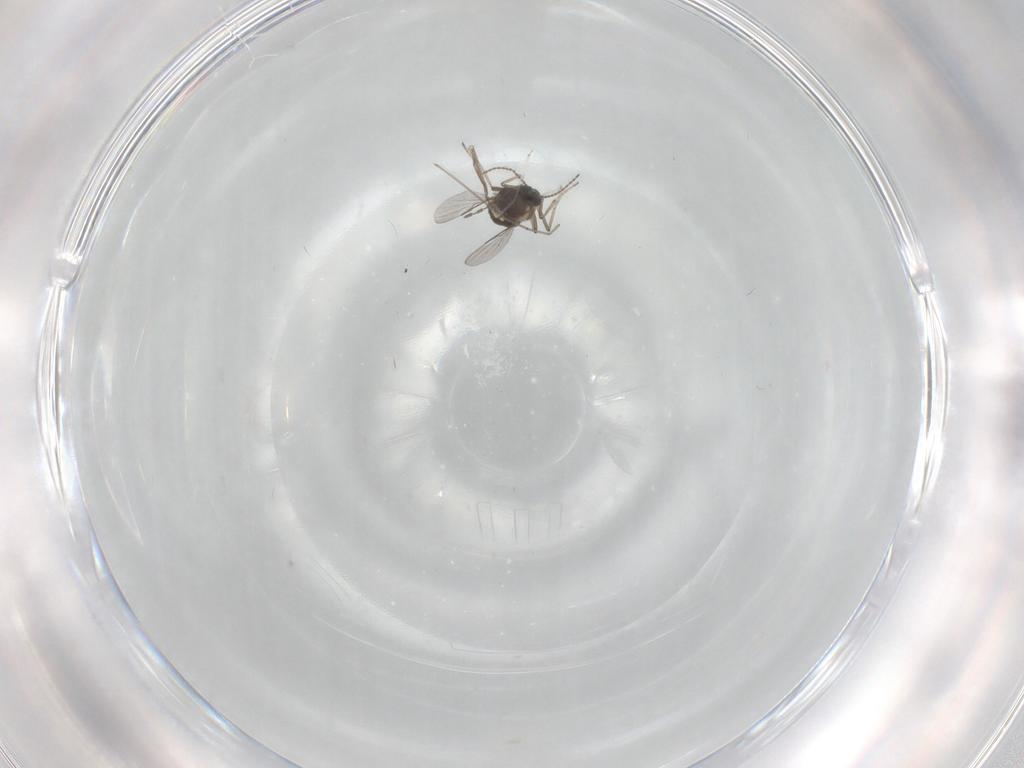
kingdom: Animalia
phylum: Arthropoda
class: Insecta
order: Diptera
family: Ceratopogonidae
